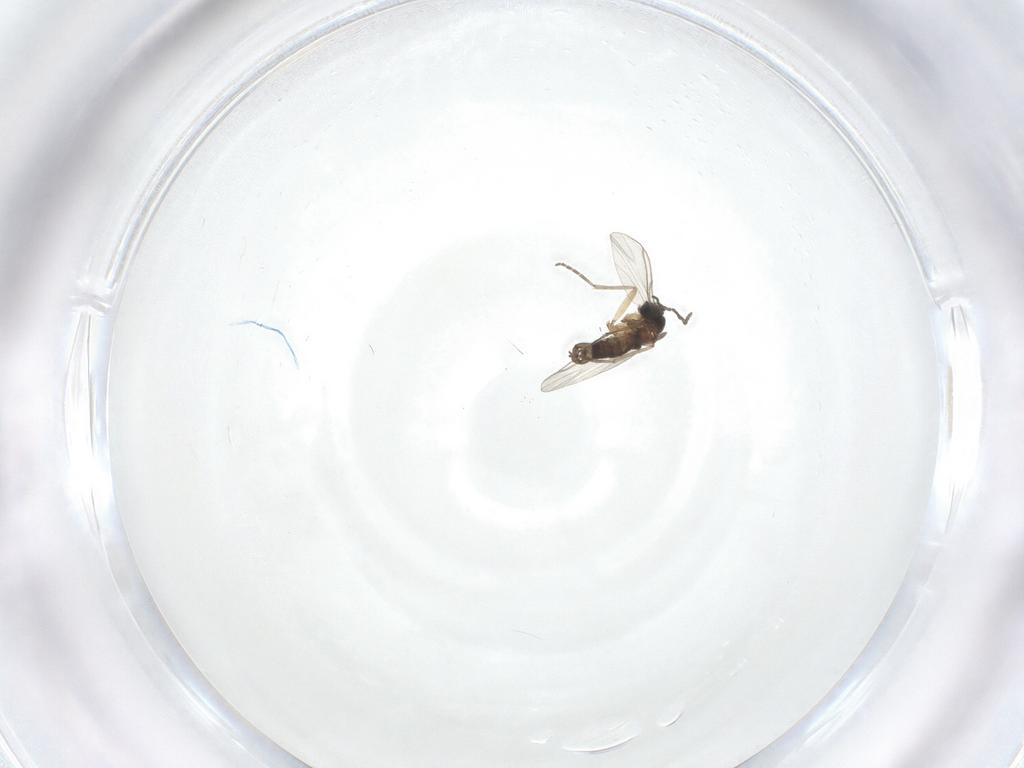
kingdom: Animalia
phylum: Arthropoda
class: Insecta
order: Diptera
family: Sciaridae
